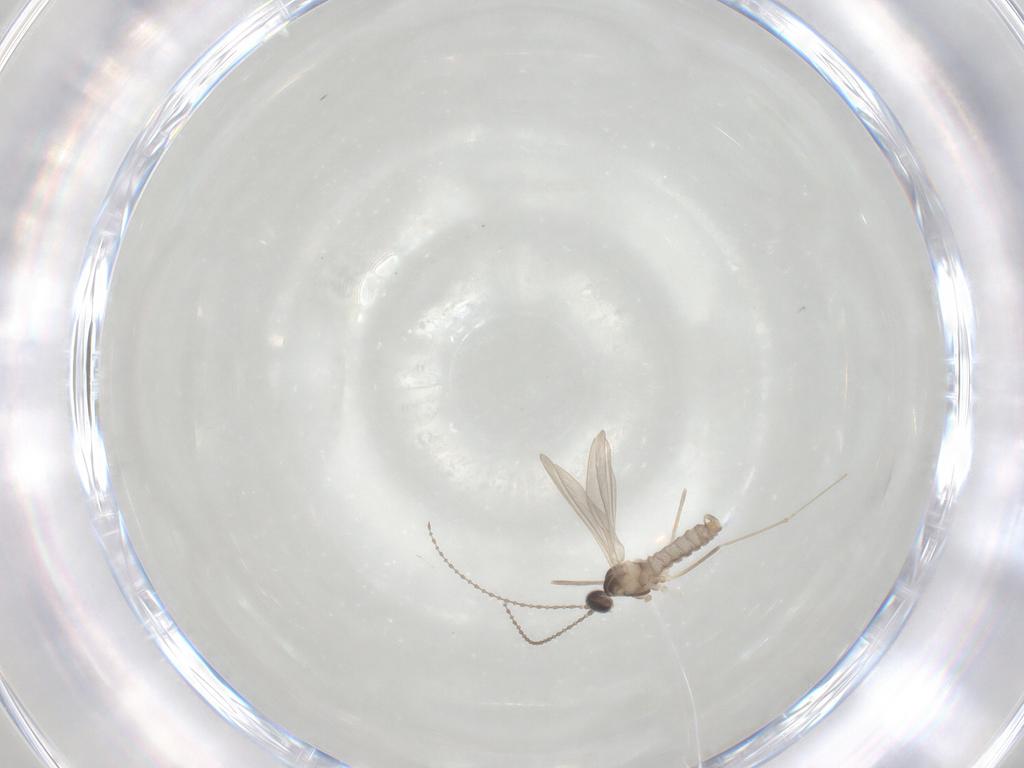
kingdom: Animalia
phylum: Arthropoda
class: Insecta
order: Diptera
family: Cecidomyiidae
